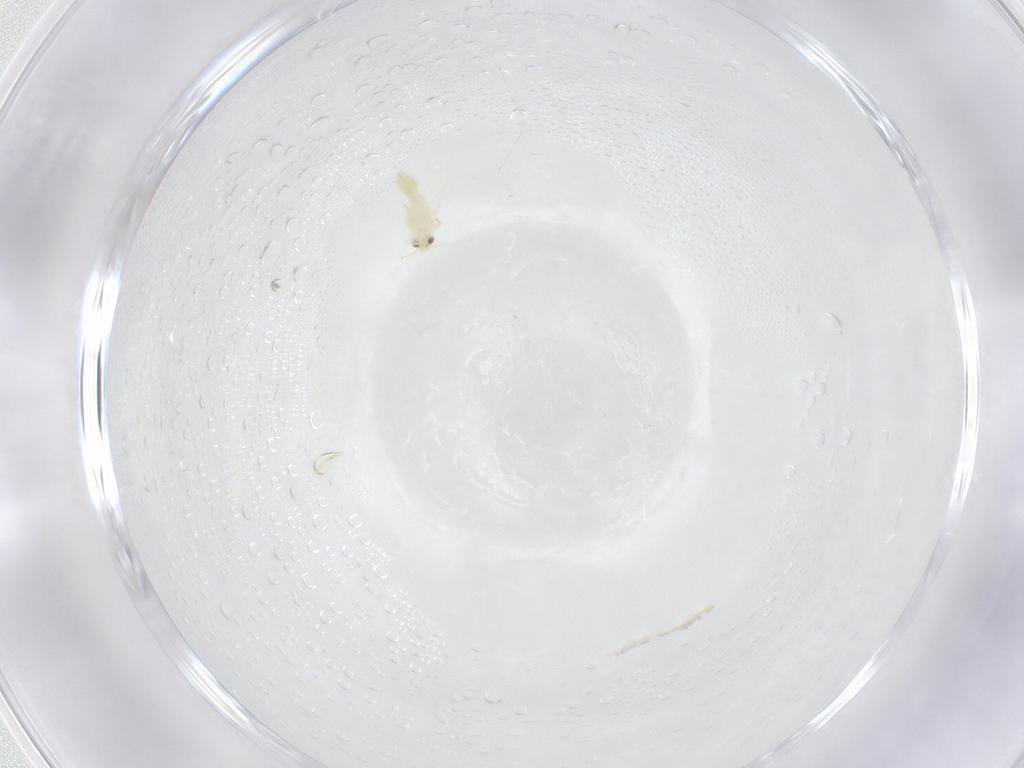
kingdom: Animalia
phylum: Arthropoda
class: Insecta
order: Hemiptera
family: Aleyrodidae
